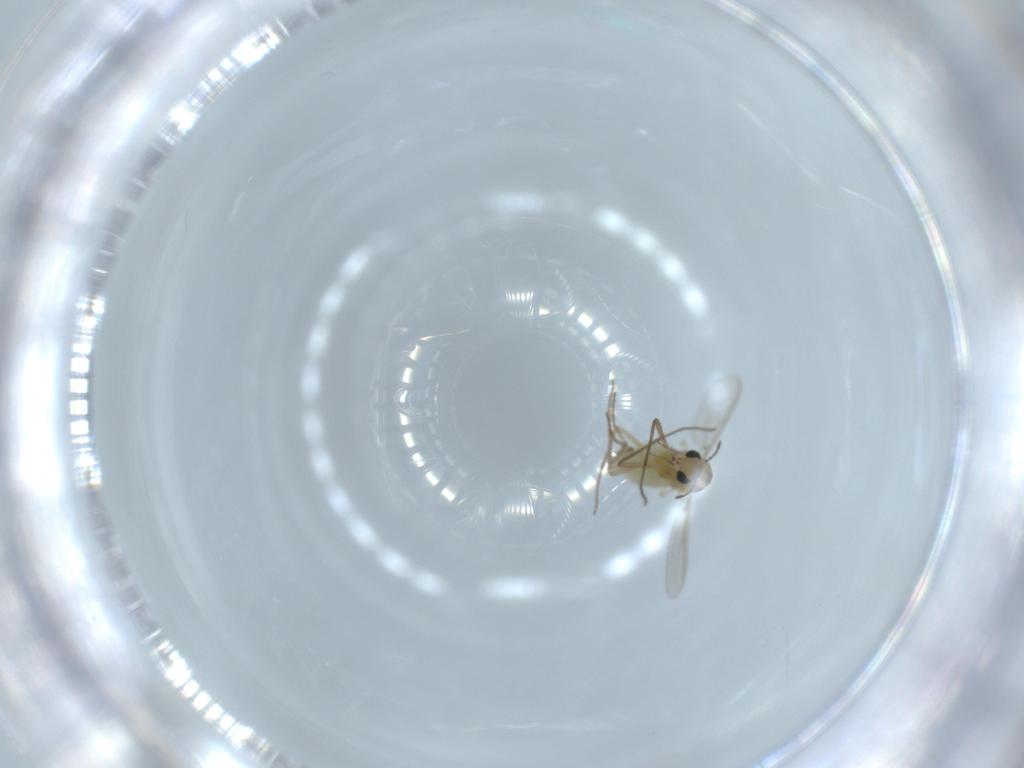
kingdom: Animalia
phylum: Arthropoda
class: Insecta
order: Diptera
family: Chironomidae
